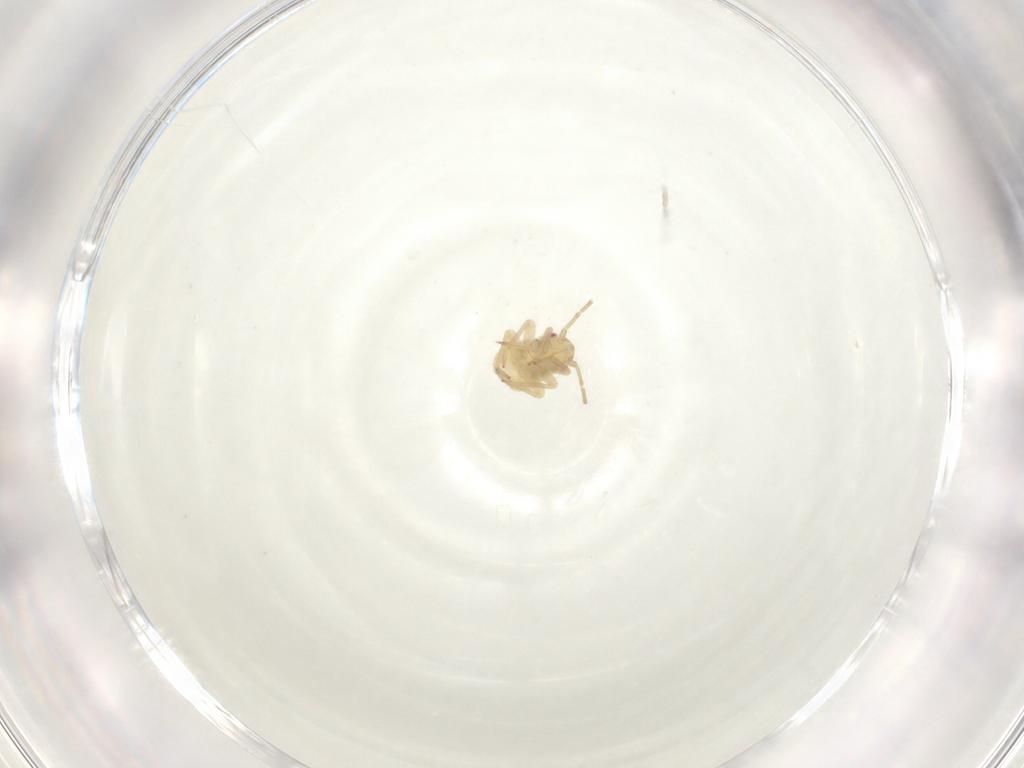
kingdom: Animalia
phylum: Arthropoda
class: Insecta
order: Hemiptera
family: Miridae
